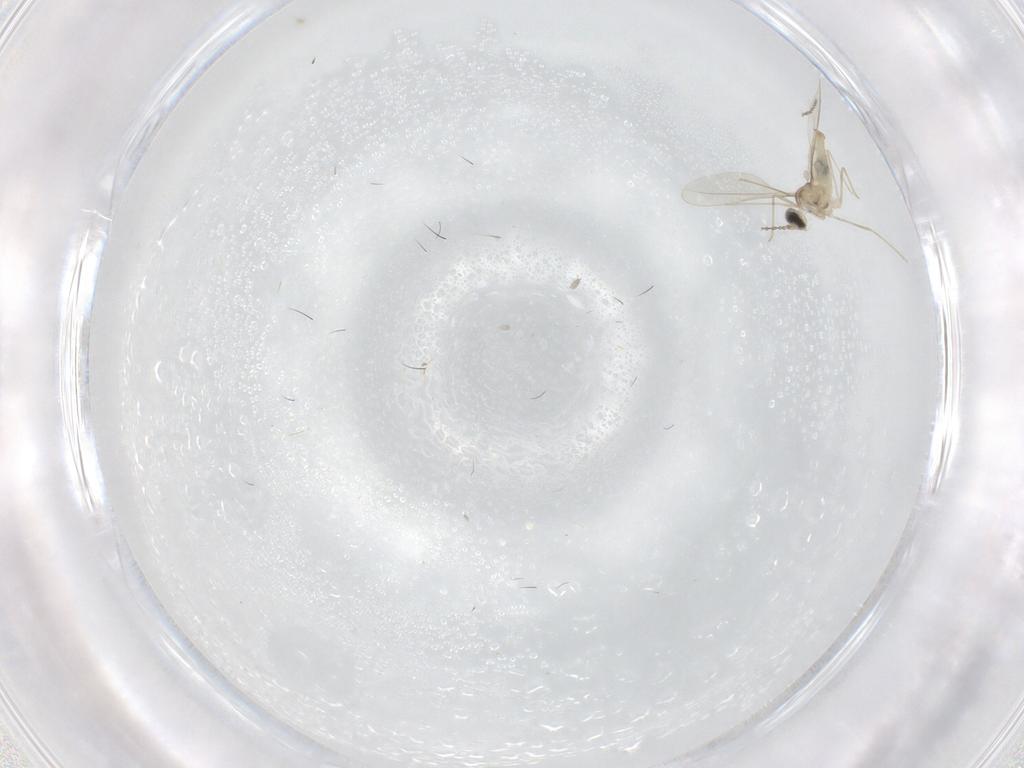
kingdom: Animalia
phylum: Arthropoda
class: Insecta
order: Diptera
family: Cecidomyiidae
